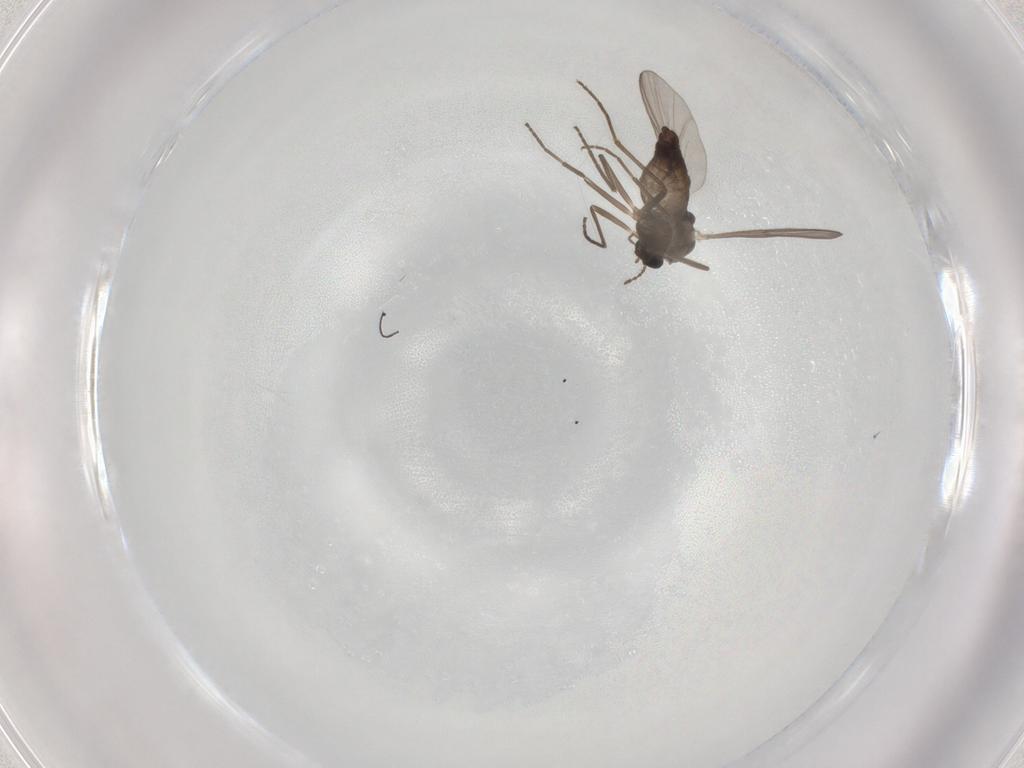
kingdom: Animalia
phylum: Arthropoda
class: Insecta
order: Diptera
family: Chironomidae
